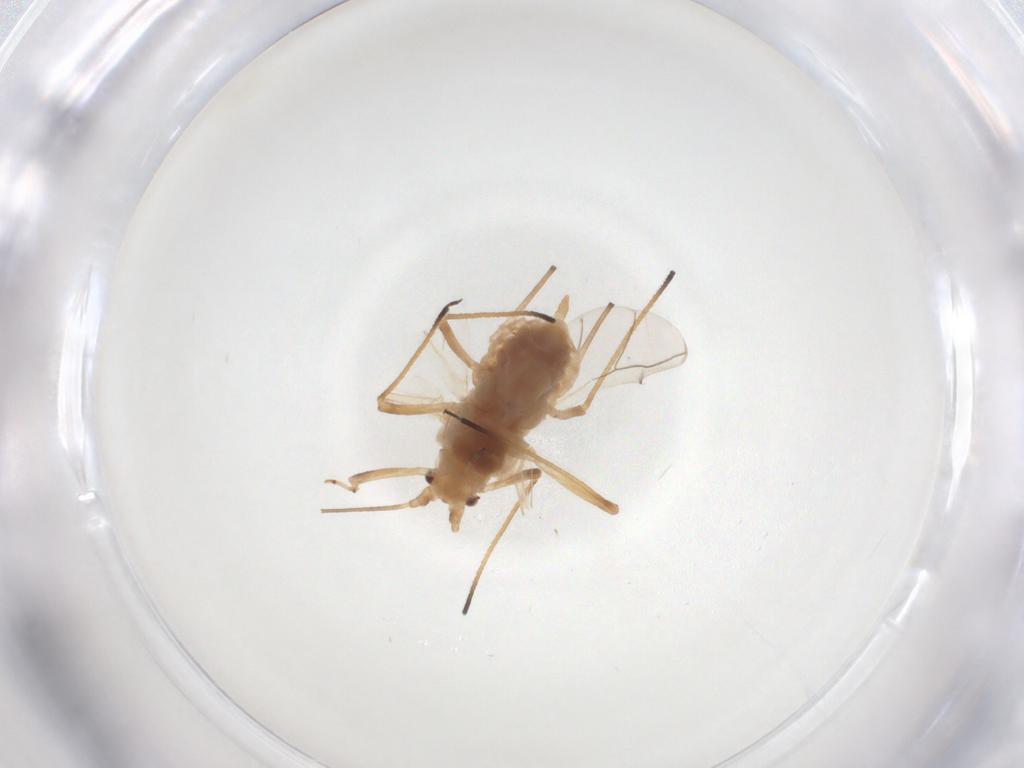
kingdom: Animalia
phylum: Arthropoda
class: Insecta
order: Hemiptera
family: Aphididae
